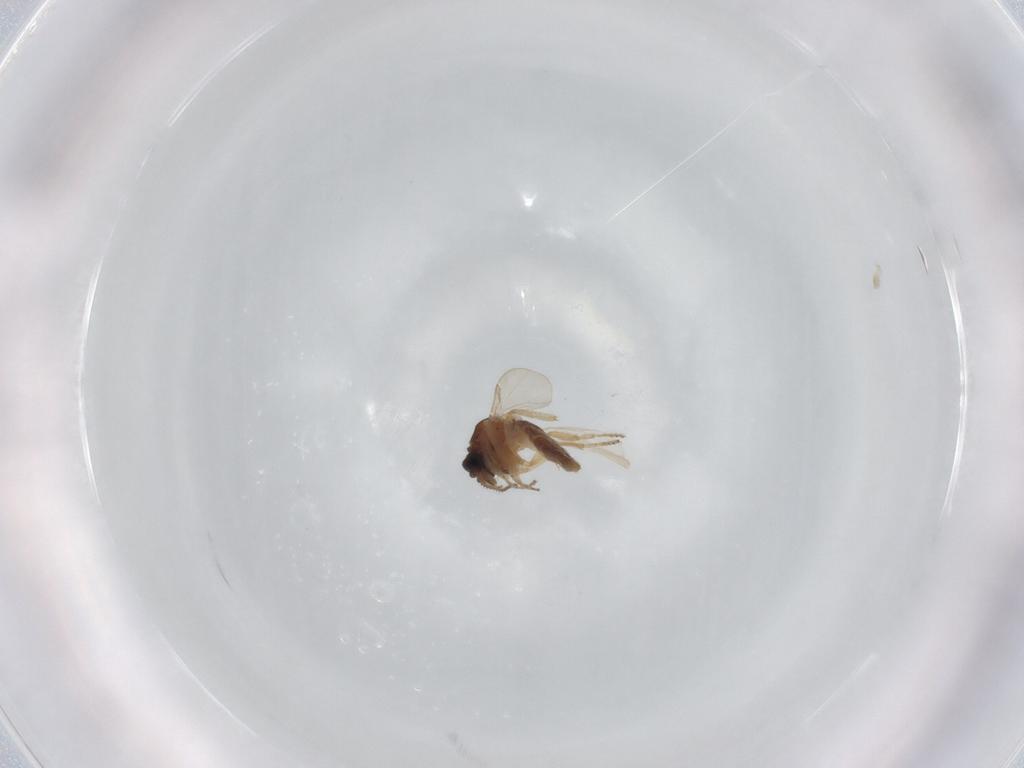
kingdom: Animalia
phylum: Arthropoda
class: Insecta
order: Diptera
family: Ceratopogonidae
